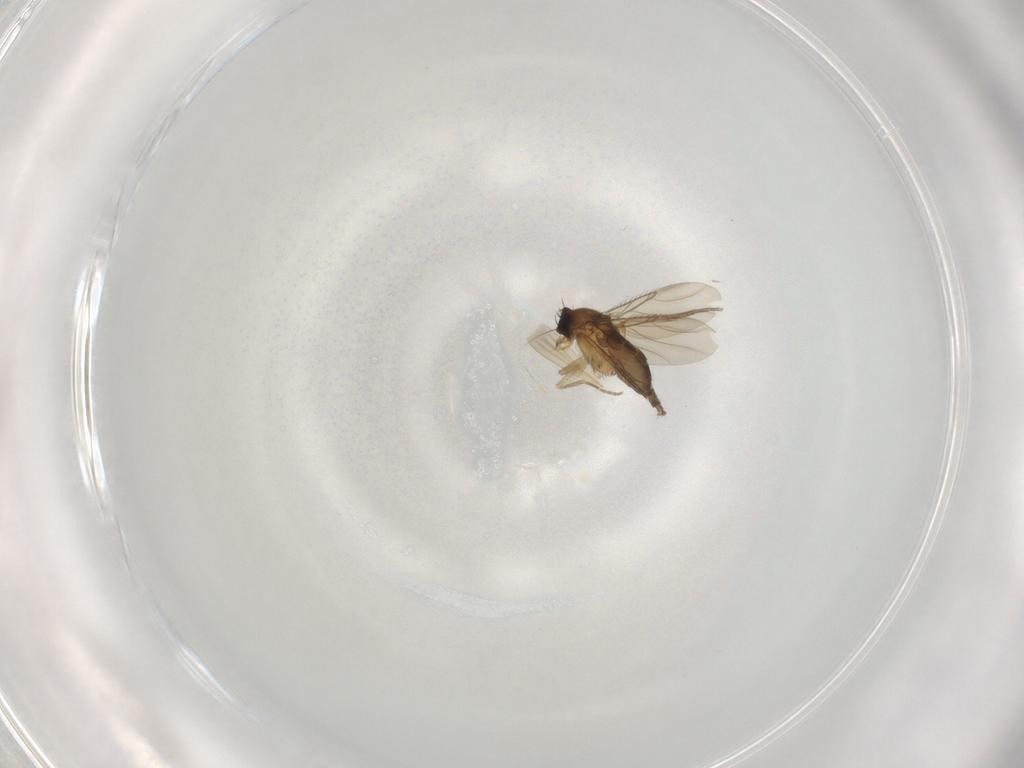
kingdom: Animalia
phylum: Arthropoda
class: Insecta
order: Diptera
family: Phoridae
